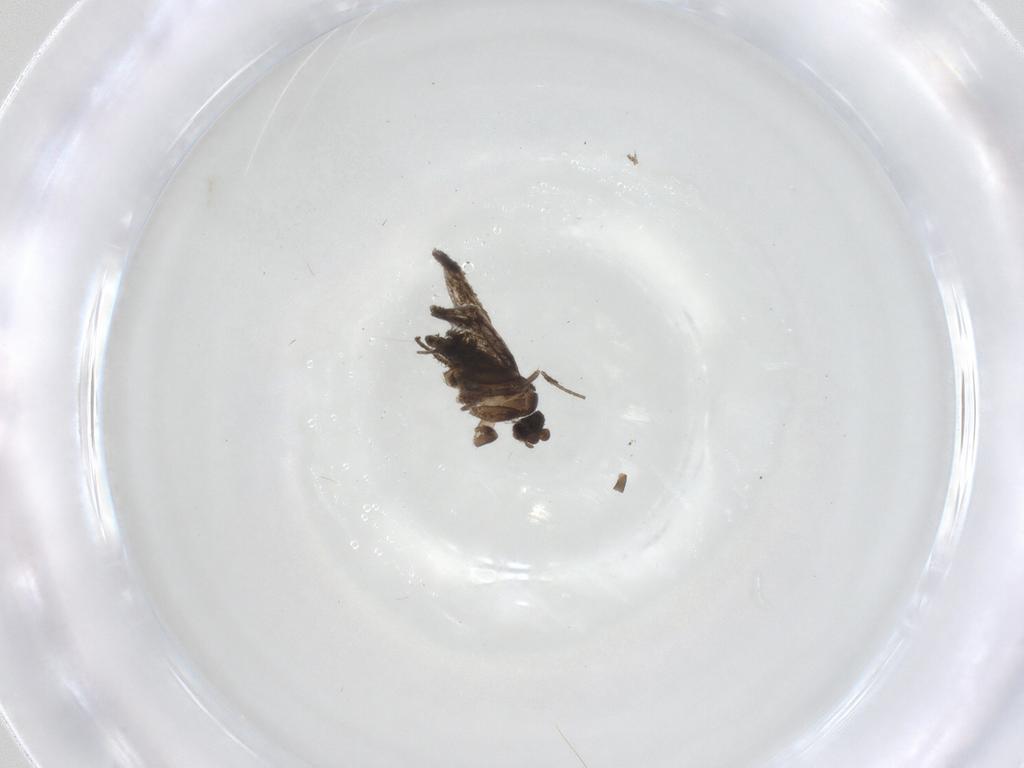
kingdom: Animalia
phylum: Arthropoda
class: Insecta
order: Diptera
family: Cecidomyiidae
